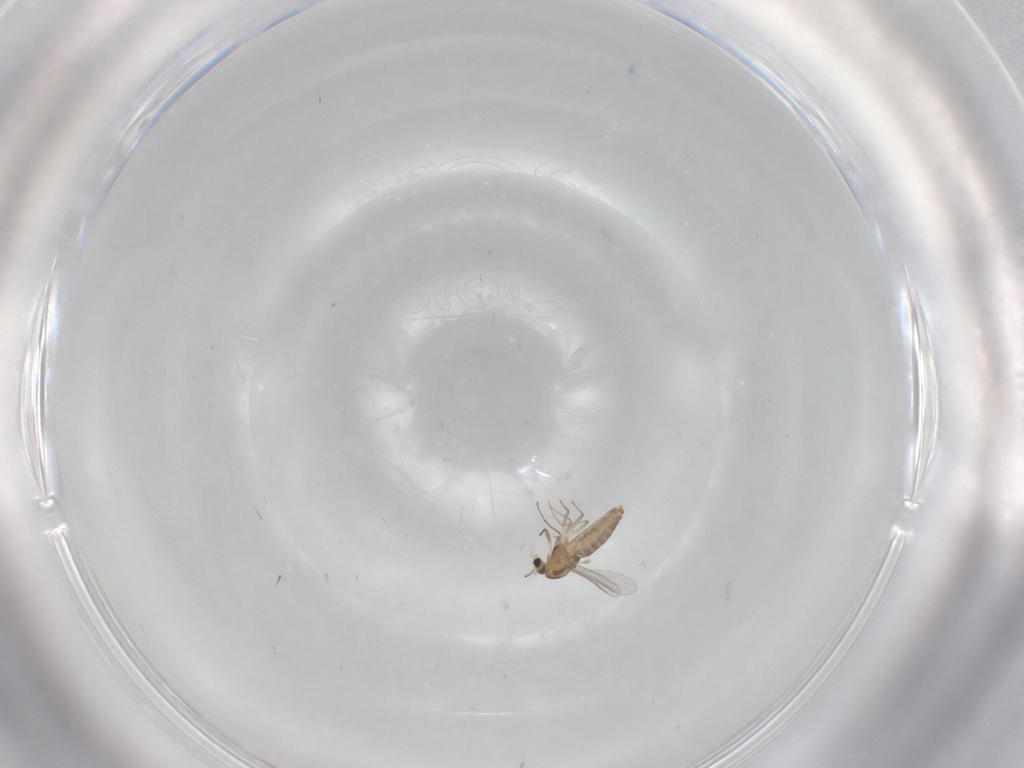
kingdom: Animalia
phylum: Arthropoda
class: Insecta
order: Diptera
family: Chironomidae
